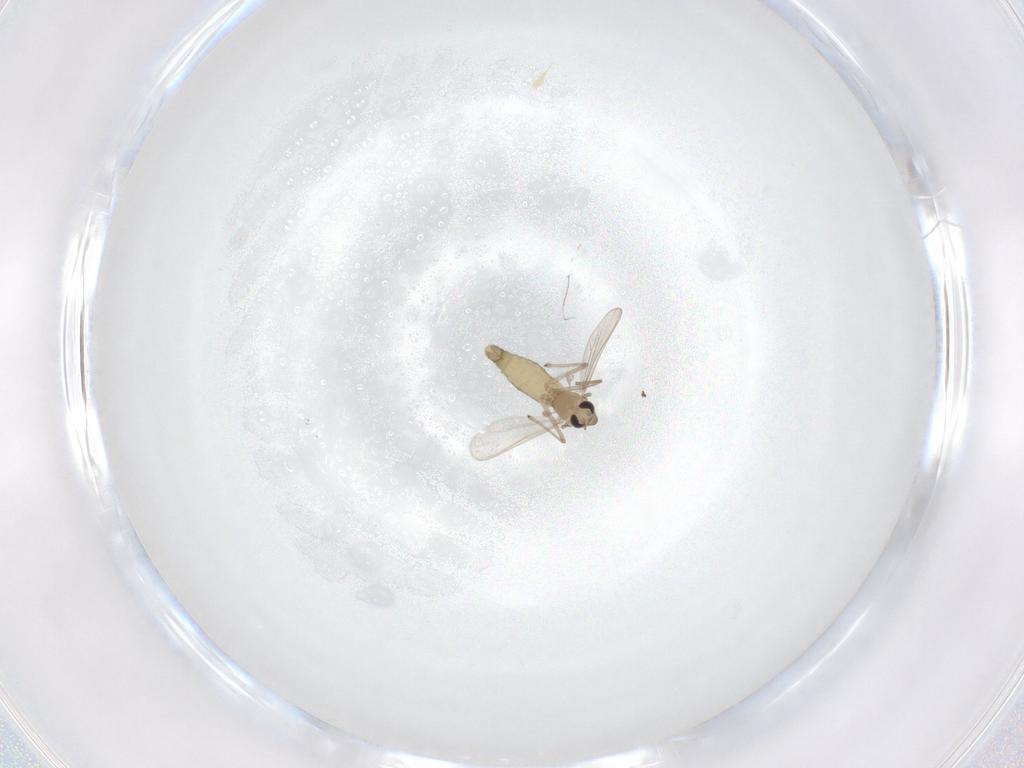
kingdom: Animalia
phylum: Arthropoda
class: Insecta
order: Diptera
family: Chironomidae
